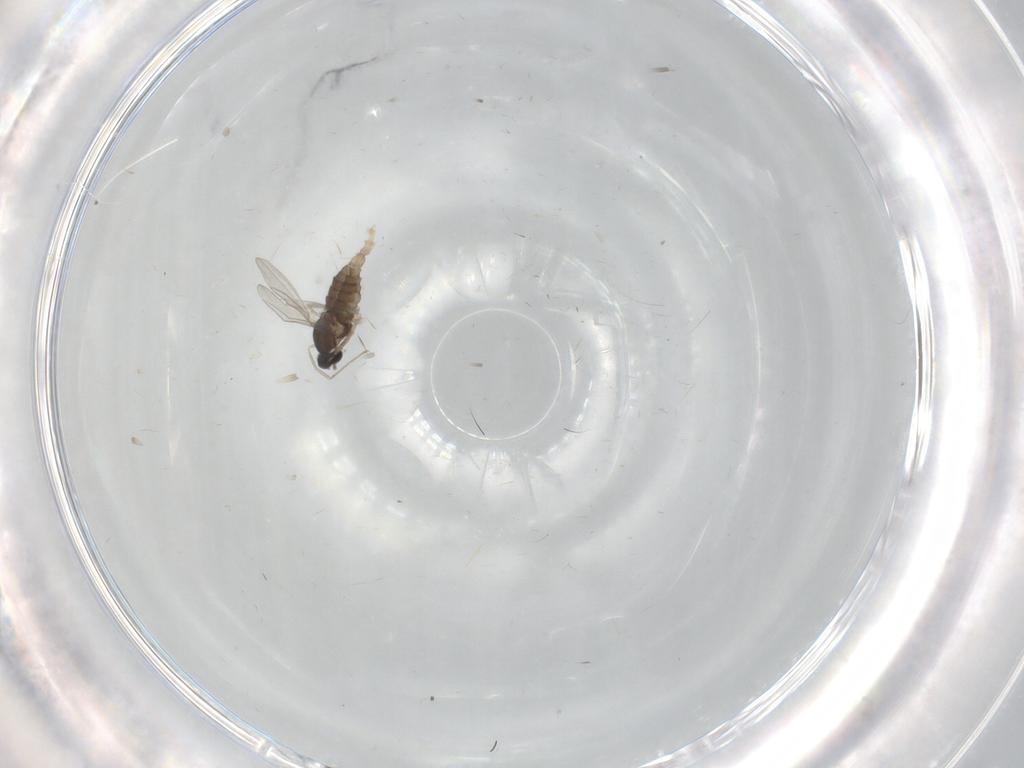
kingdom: Animalia
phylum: Arthropoda
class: Insecta
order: Diptera
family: Cecidomyiidae
